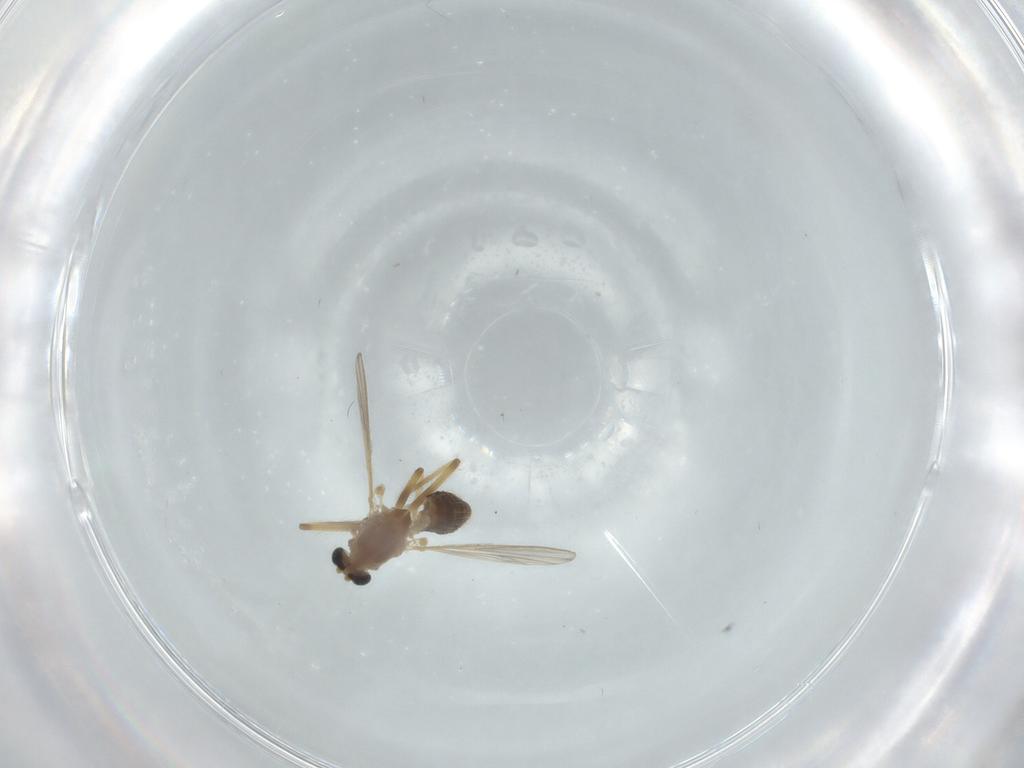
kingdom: Animalia
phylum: Arthropoda
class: Insecta
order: Diptera
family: Chironomidae
